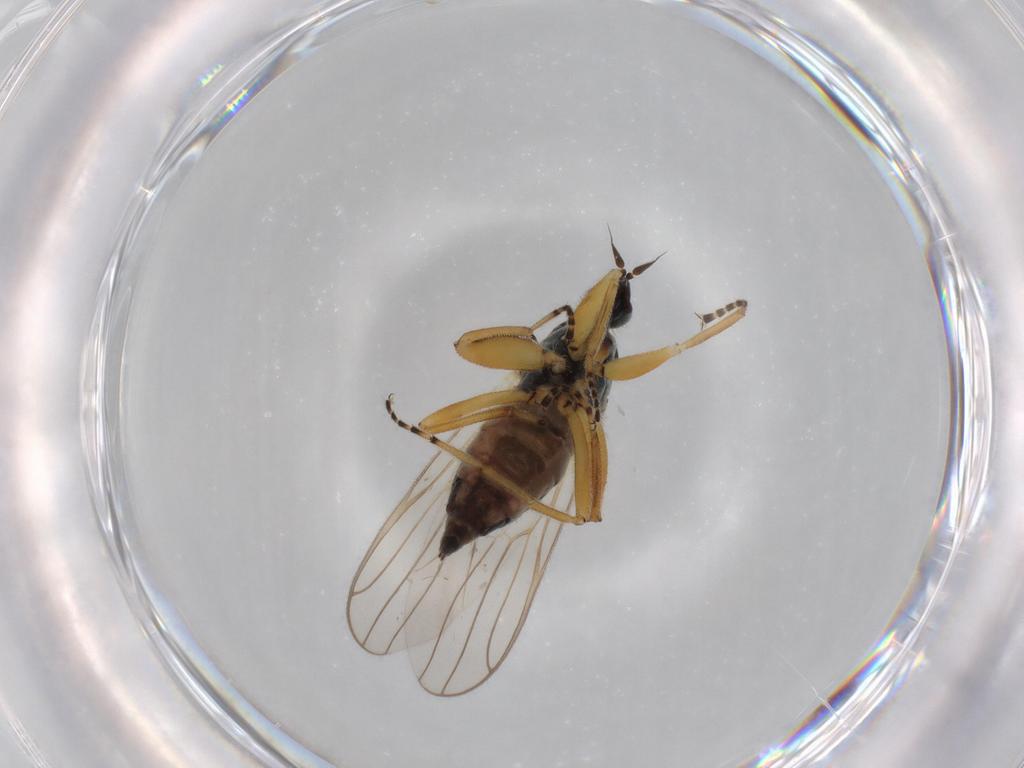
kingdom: Animalia
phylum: Arthropoda
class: Insecta
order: Diptera
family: Hybotidae
